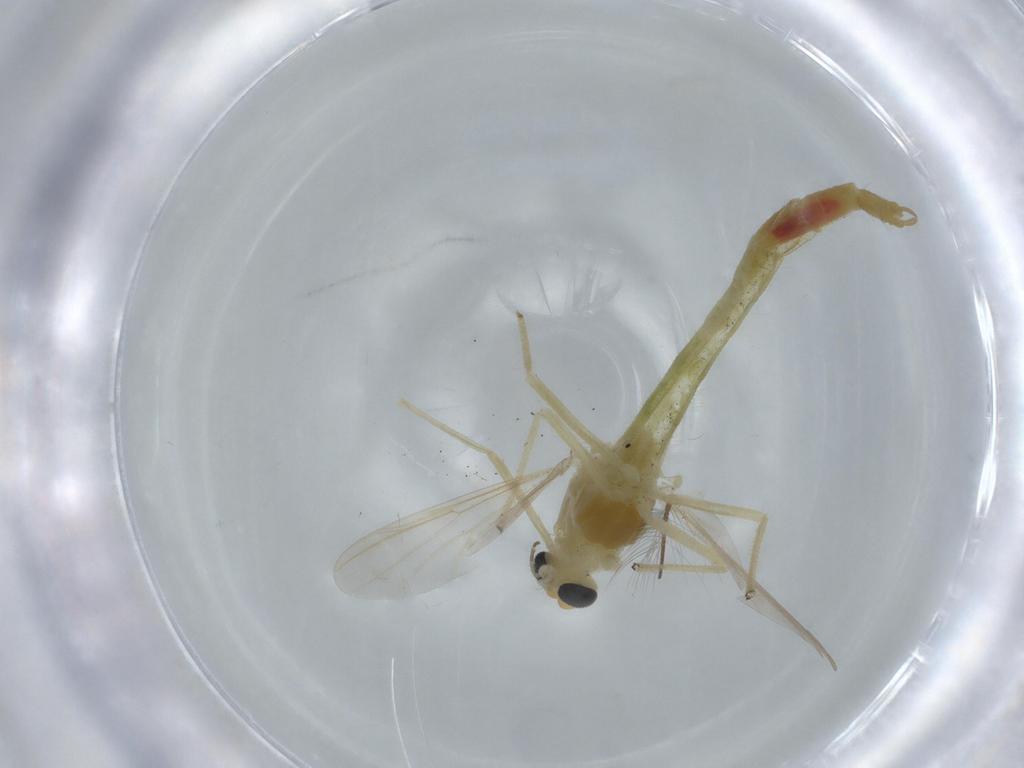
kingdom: Animalia
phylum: Arthropoda
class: Insecta
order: Diptera
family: Chironomidae
